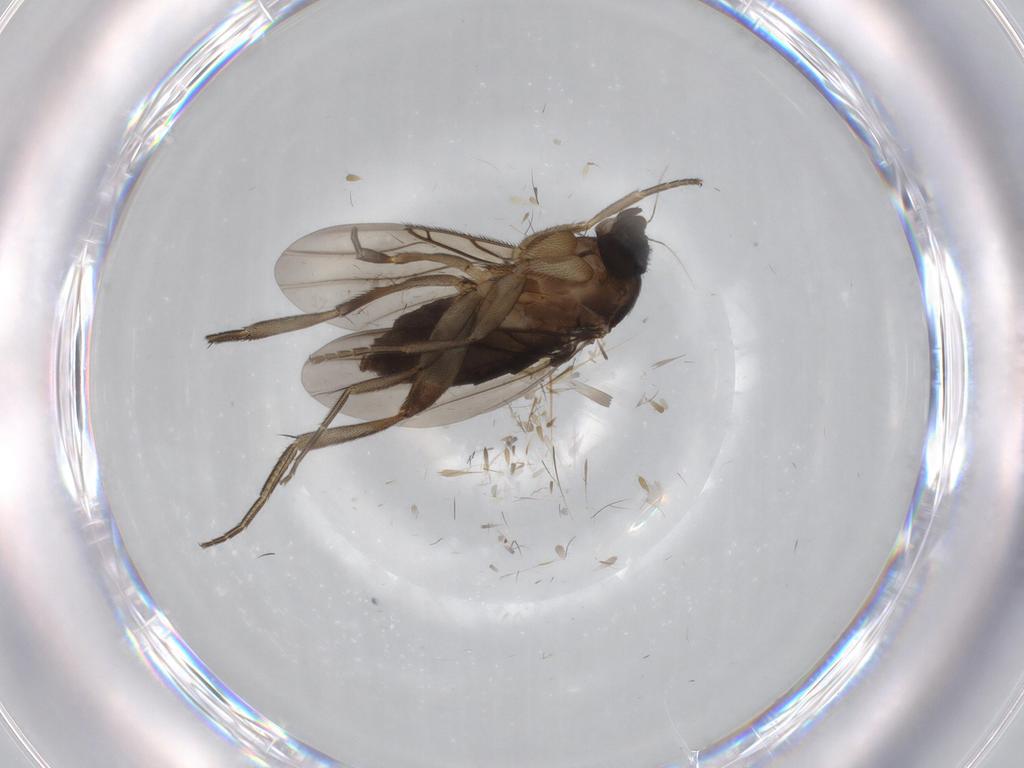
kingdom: Animalia
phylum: Arthropoda
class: Insecta
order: Diptera
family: Phoridae
